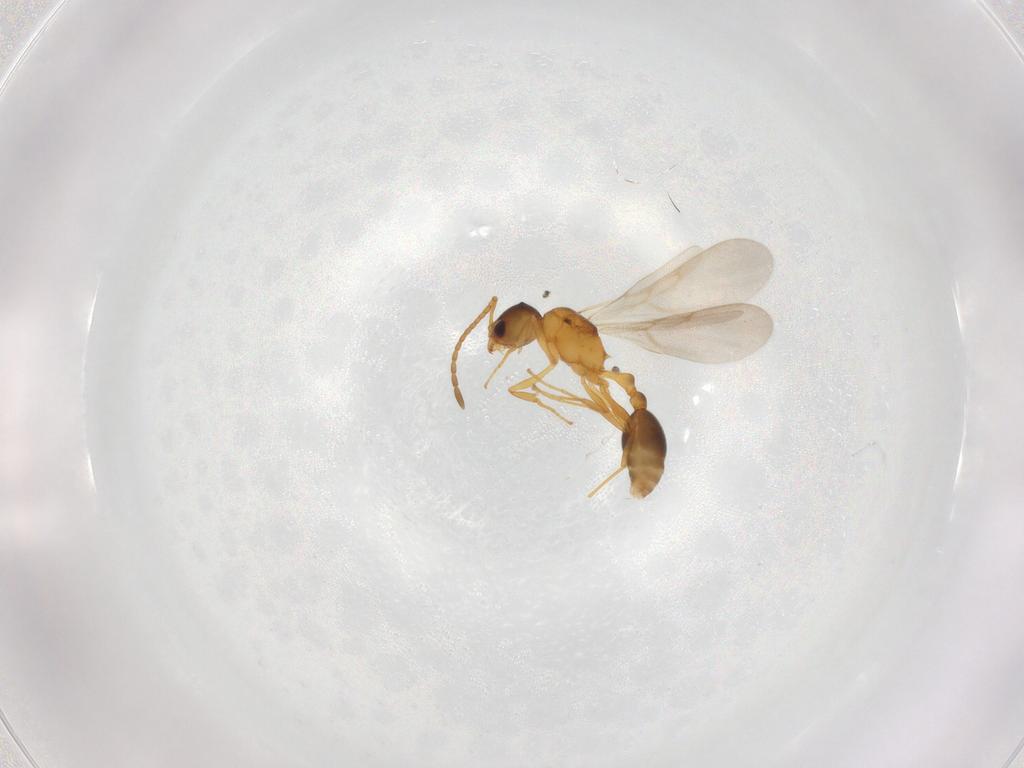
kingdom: Animalia
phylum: Arthropoda
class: Insecta
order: Hymenoptera
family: Formicidae
